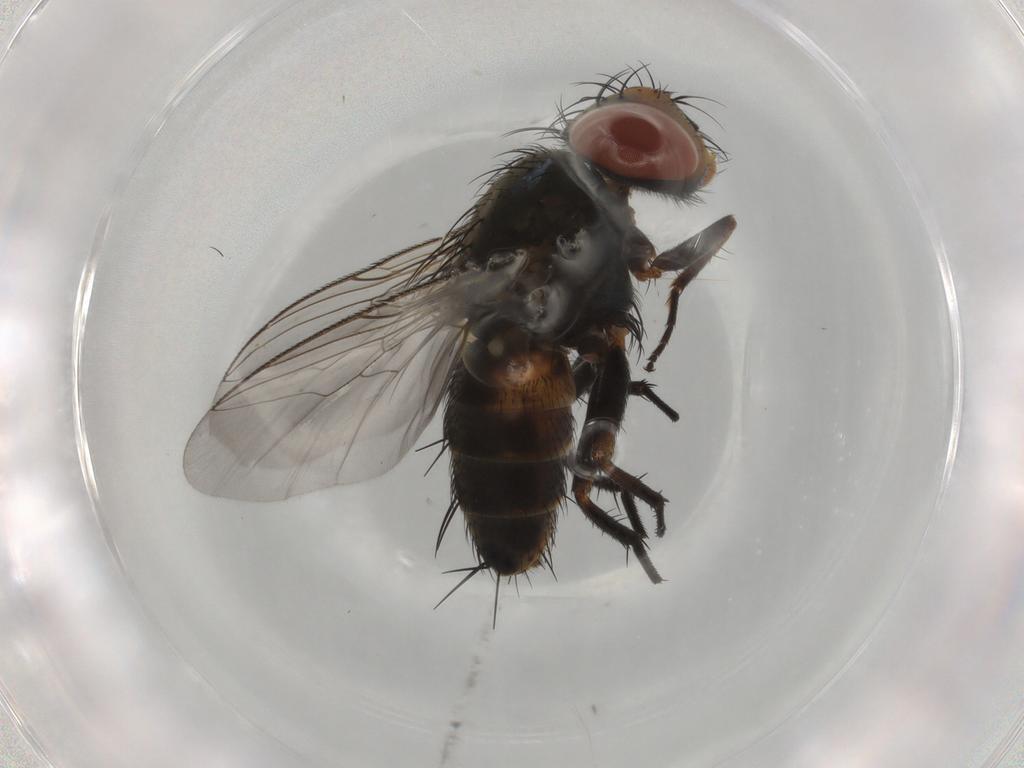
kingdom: Animalia
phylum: Arthropoda
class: Insecta
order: Diptera
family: Sarcophagidae
